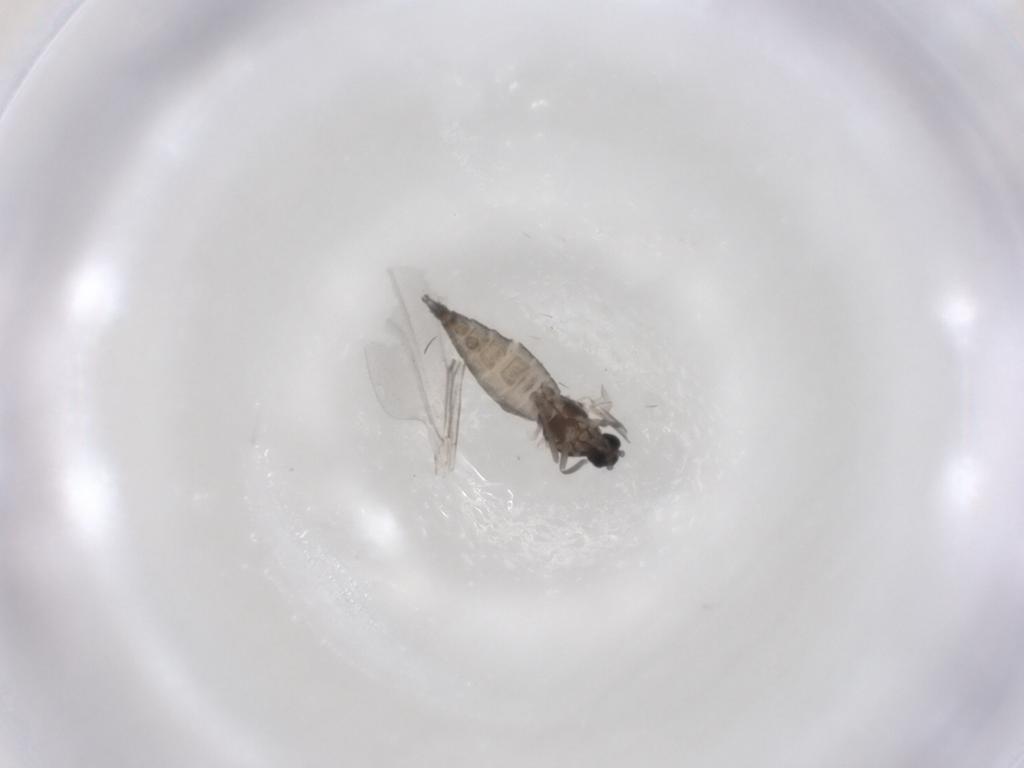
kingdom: Animalia
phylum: Arthropoda
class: Insecta
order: Diptera
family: Cecidomyiidae
